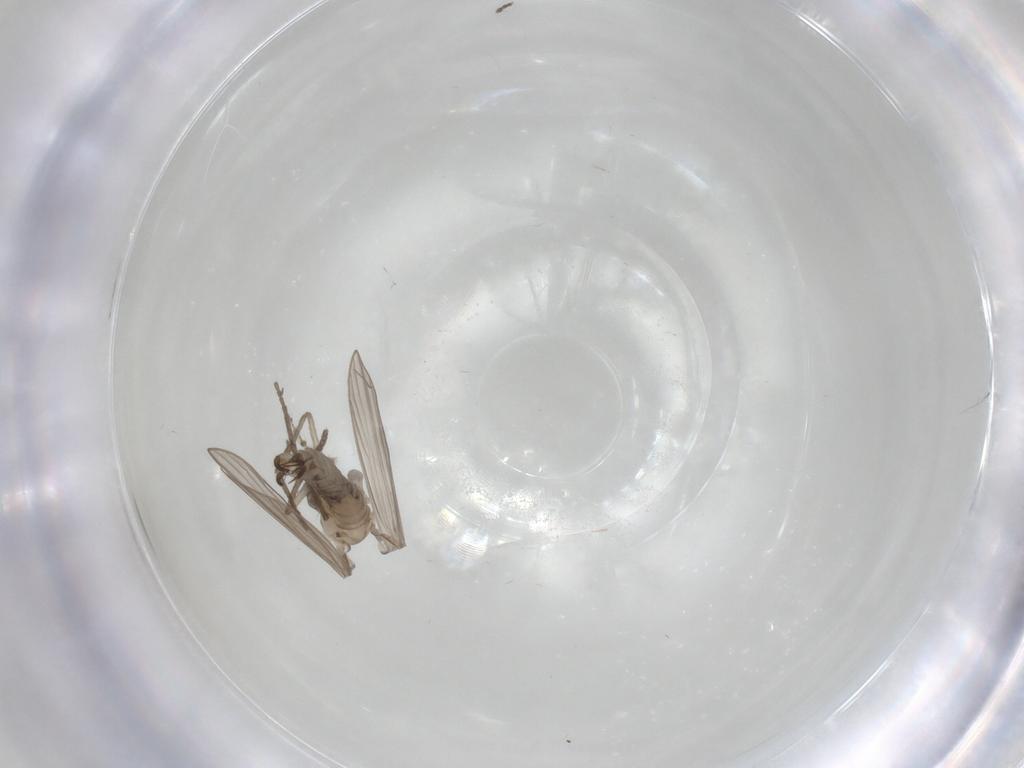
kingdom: Animalia
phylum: Arthropoda
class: Insecta
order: Diptera
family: Psychodidae
